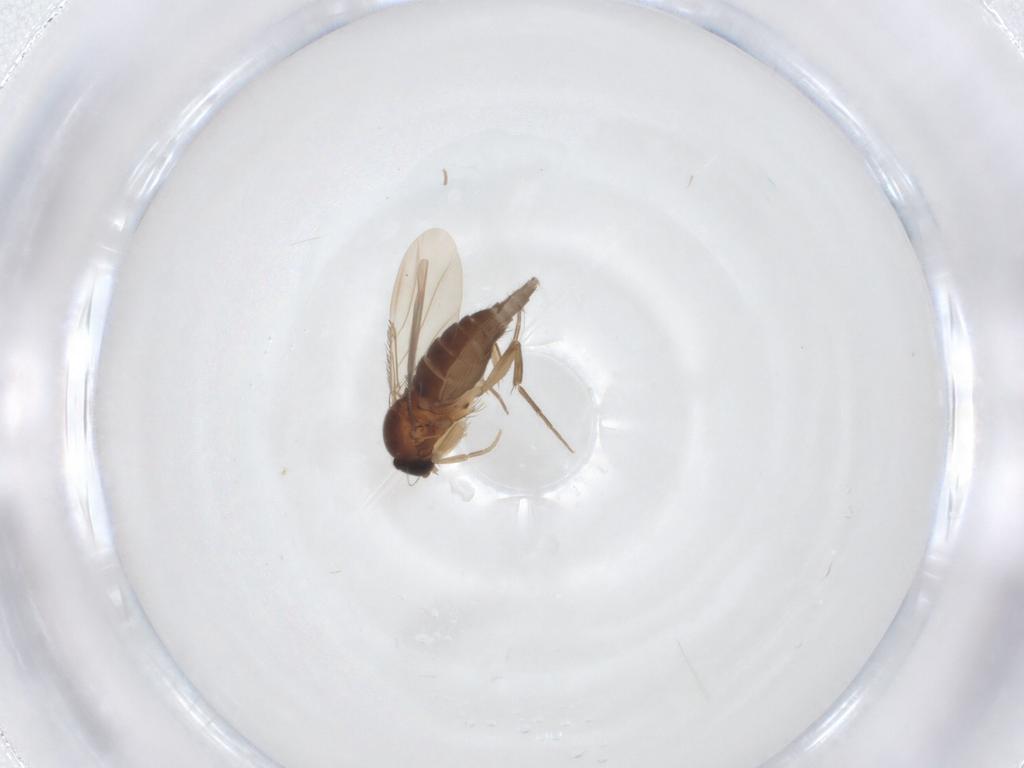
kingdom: Animalia
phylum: Arthropoda
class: Insecta
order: Diptera
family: Phoridae
